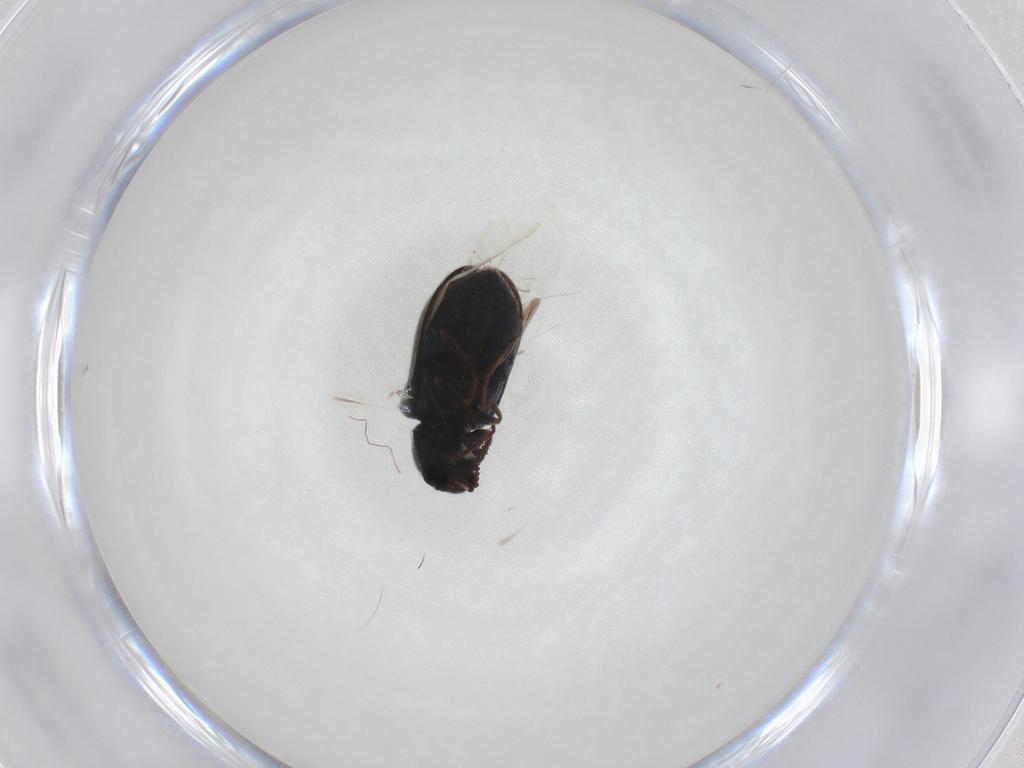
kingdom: Animalia
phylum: Arthropoda
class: Insecta
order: Coleoptera
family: Melyridae
